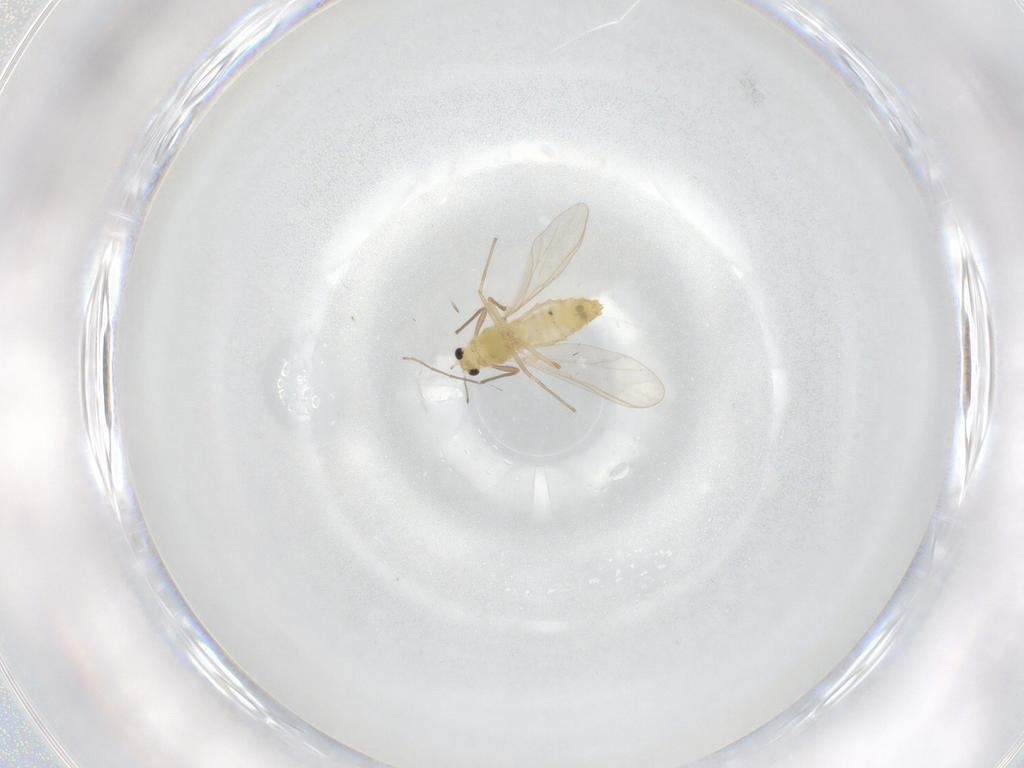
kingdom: Animalia
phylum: Arthropoda
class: Insecta
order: Diptera
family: Chironomidae
